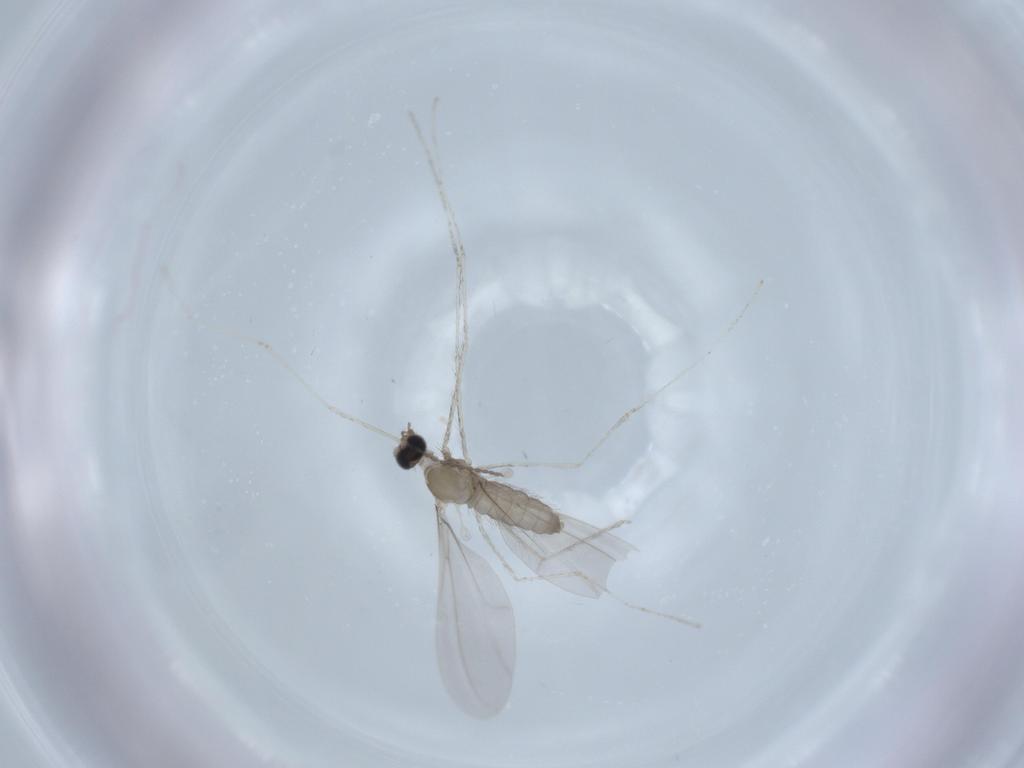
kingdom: Animalia
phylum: Arthropoda
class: Insecta
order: Diptera
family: Cecidomyiidae
